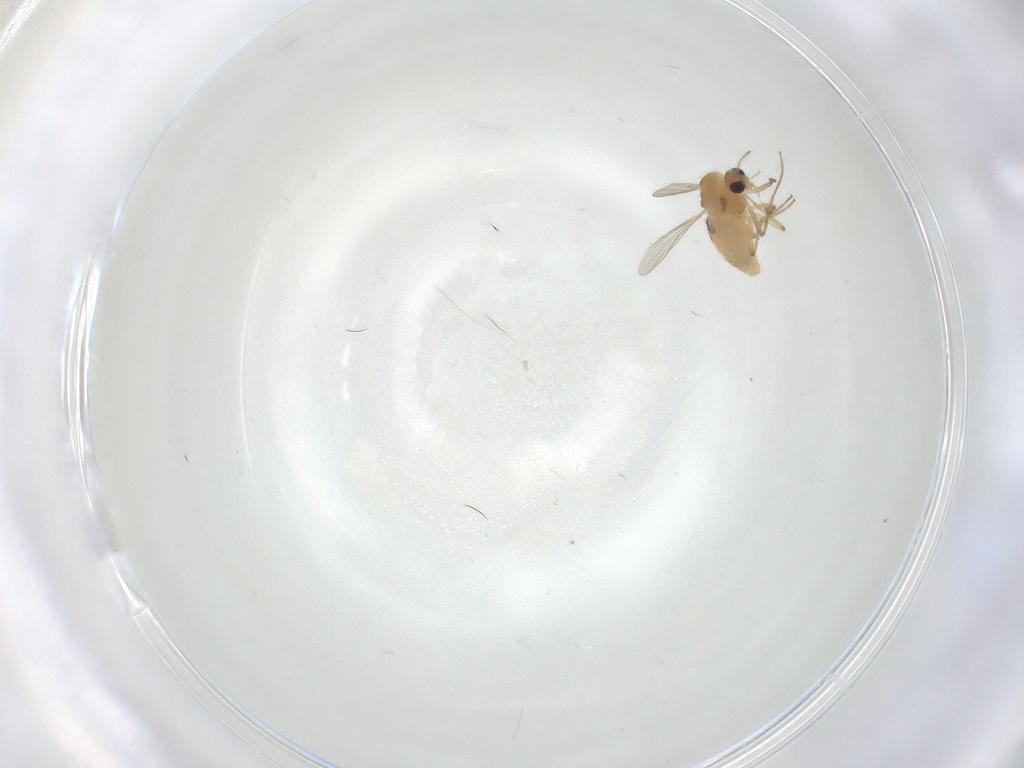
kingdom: Animalia
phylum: Arthropoda
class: Insecta
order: Diptera
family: Chironomidae
